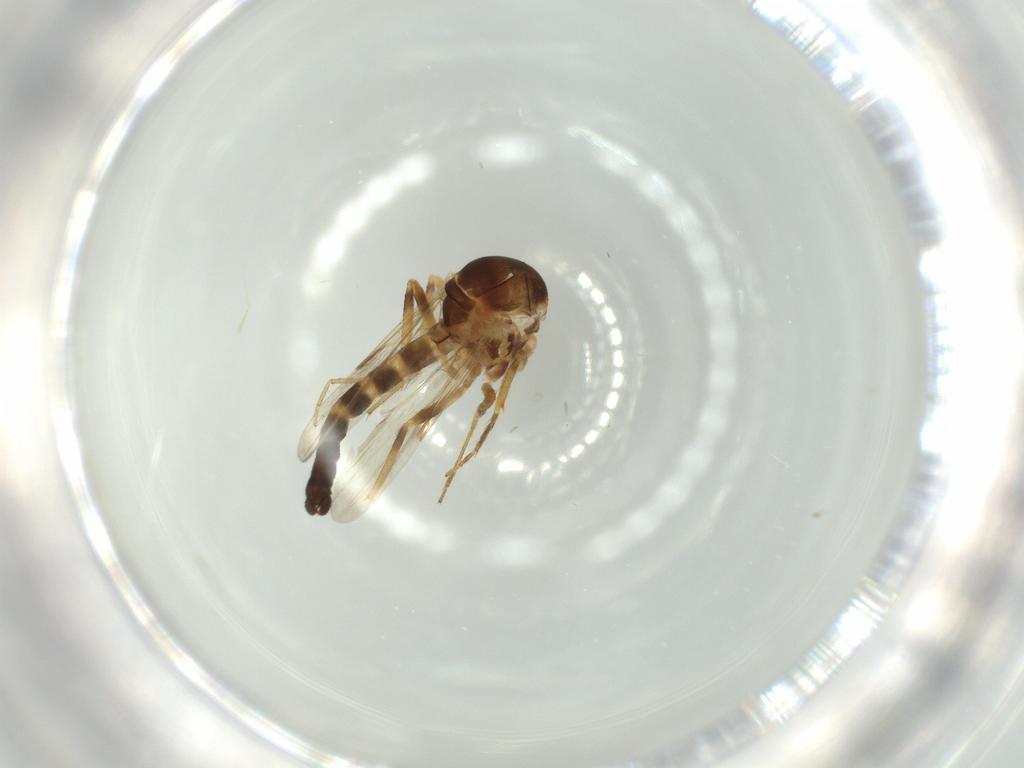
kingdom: Animalia
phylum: Arthropoda
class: Insecta
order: Diptera
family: Ceratopogonidae
